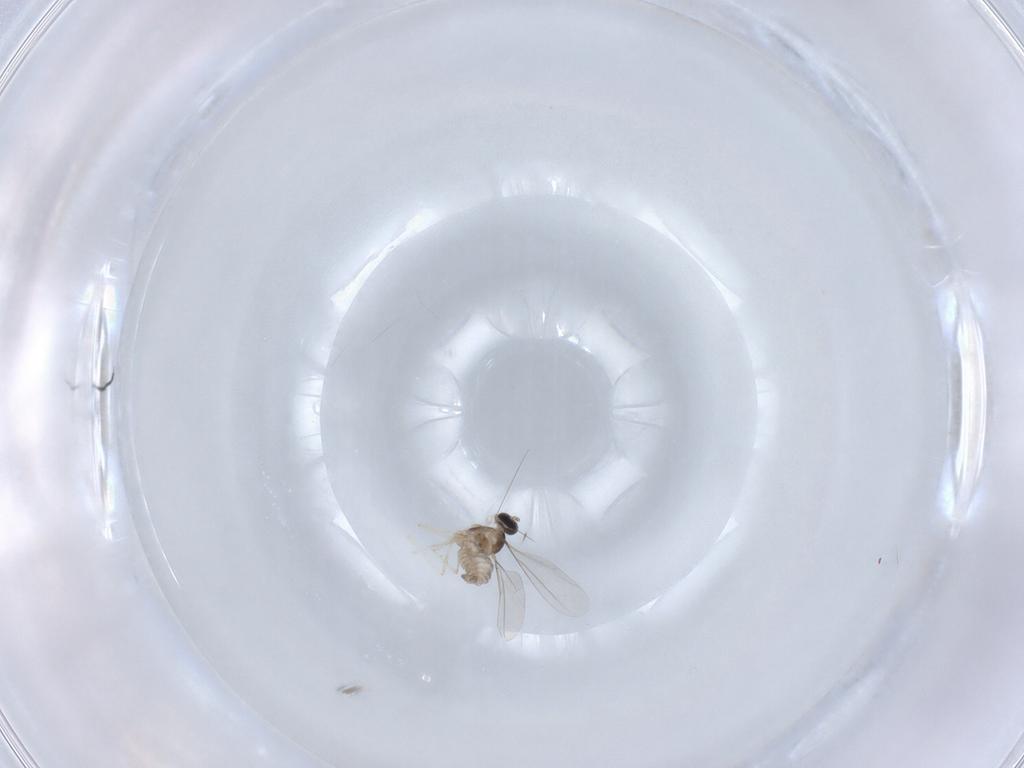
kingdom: Animalia
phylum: Arthropoda
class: Insecta
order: Diptera
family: Cecidomyiidae
